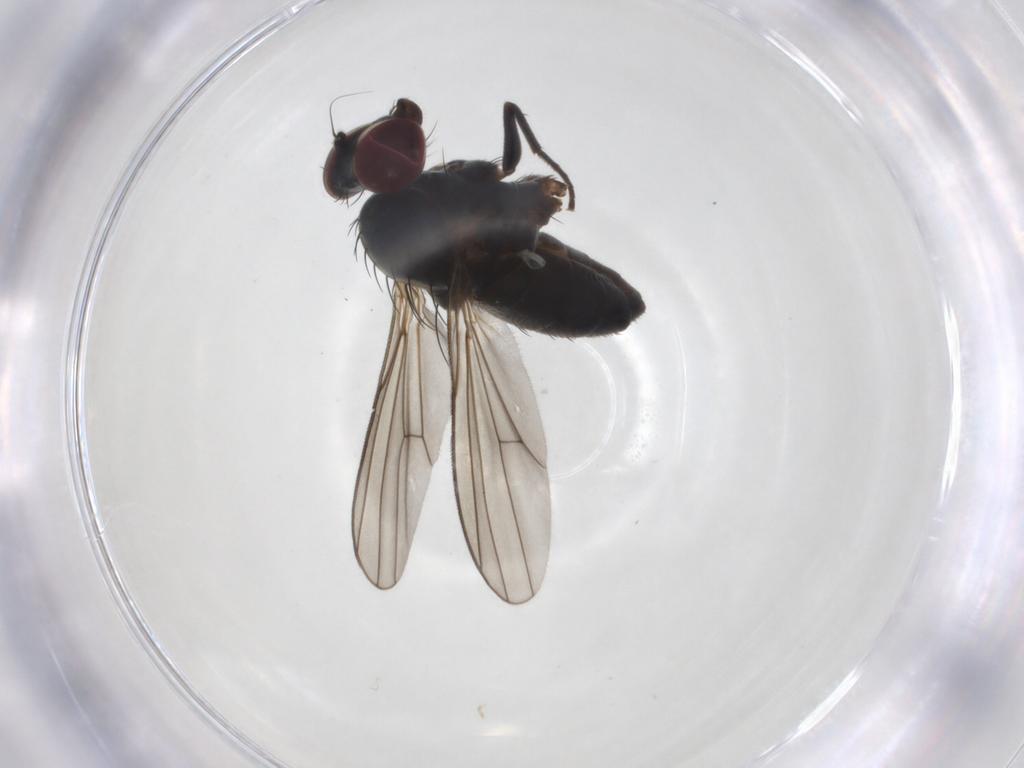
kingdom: Animalia
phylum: Arthropoda
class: Insecta
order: Diptera
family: Dolichopodidae
